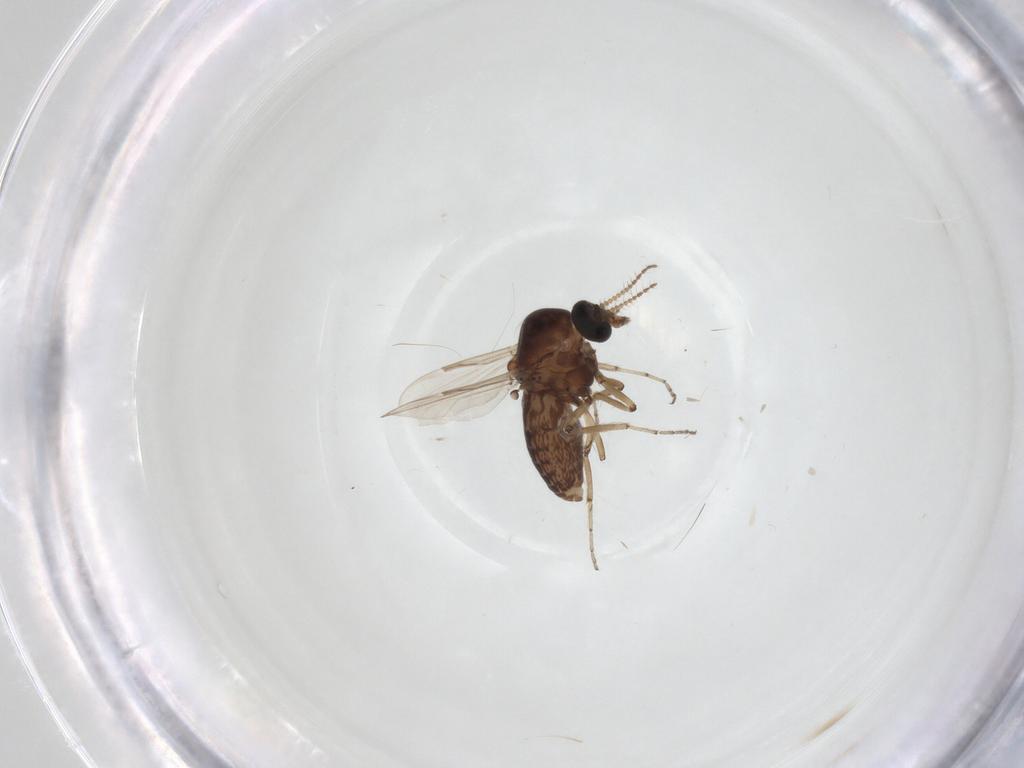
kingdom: Animalia
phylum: Arthropoda
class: Insecta
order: Diptera
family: Ceratopogonidae
